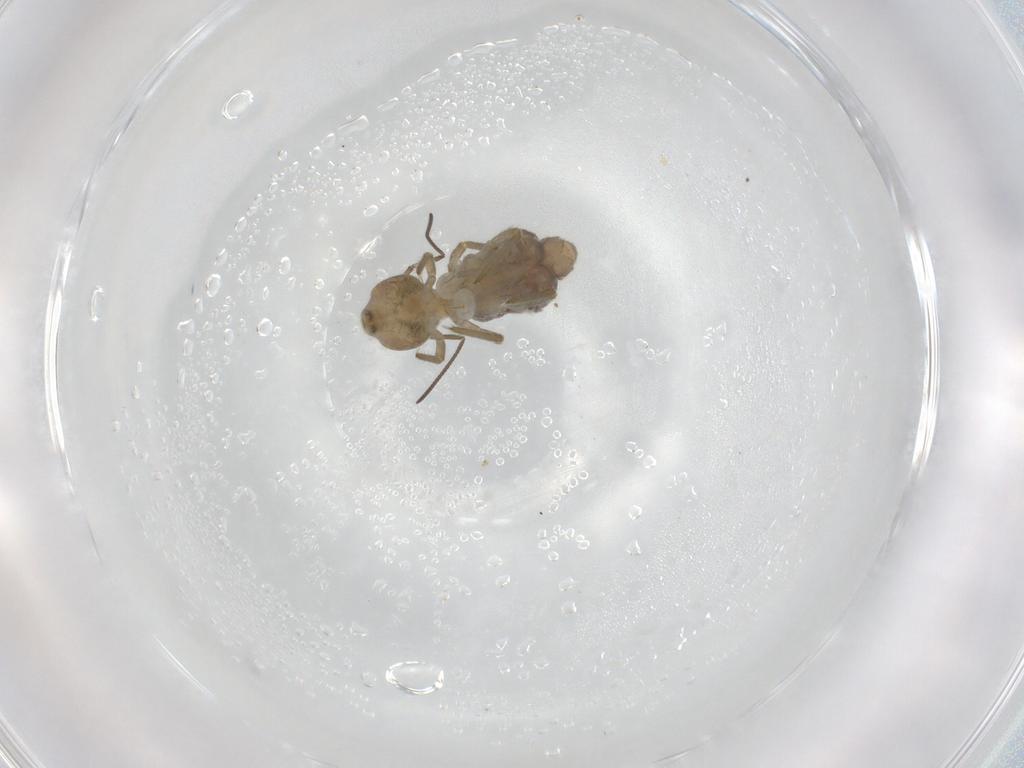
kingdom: Animalia
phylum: Arthropoda
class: Collembola
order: Symphypleona
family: Sminthuridae
